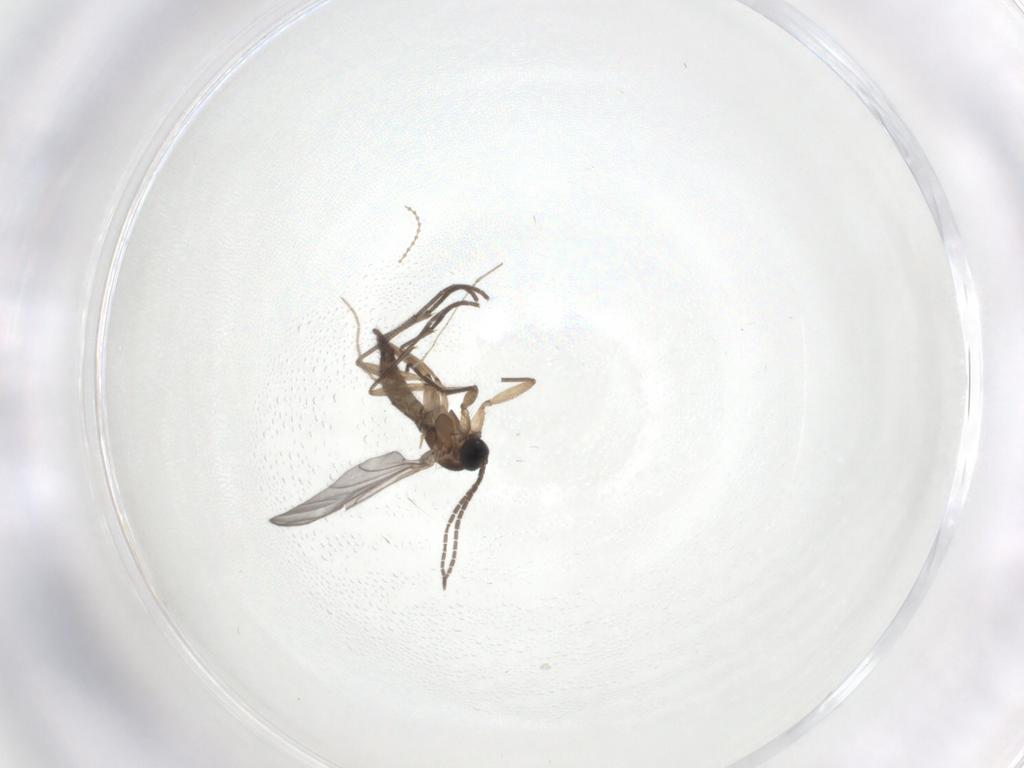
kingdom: Animalia
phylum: Arthropoda
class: Insecta
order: Diptera
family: Sciaridae
